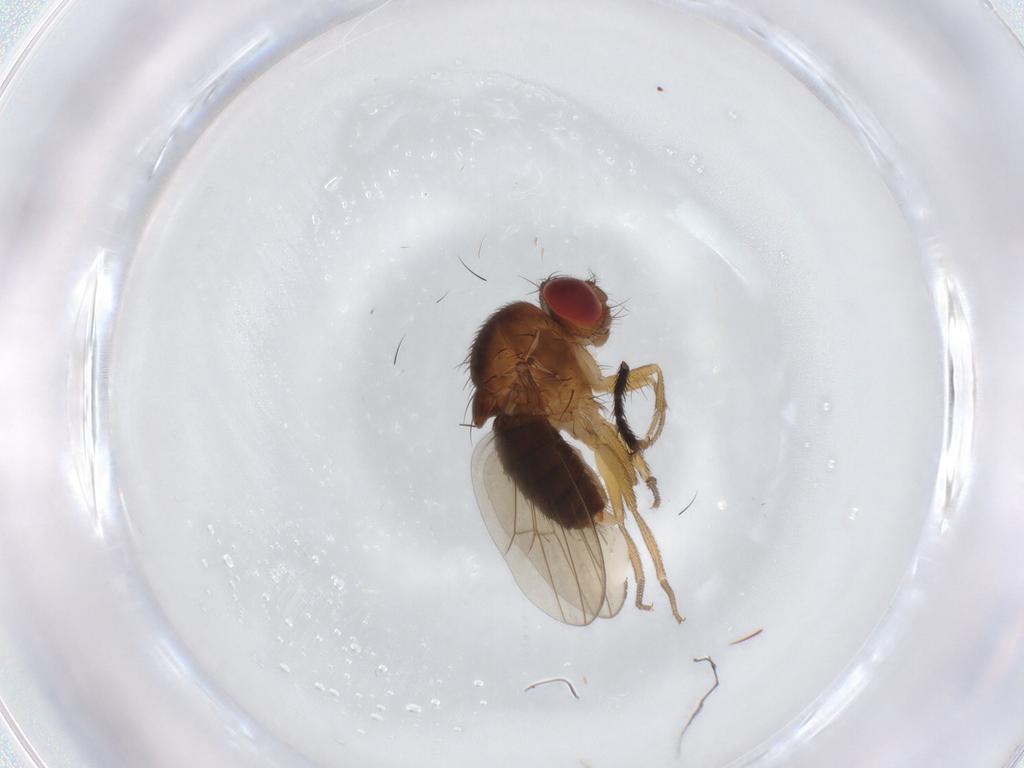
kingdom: Animalia
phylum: Arthropoda
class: Insecta
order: Diptera
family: Drosophilidae
